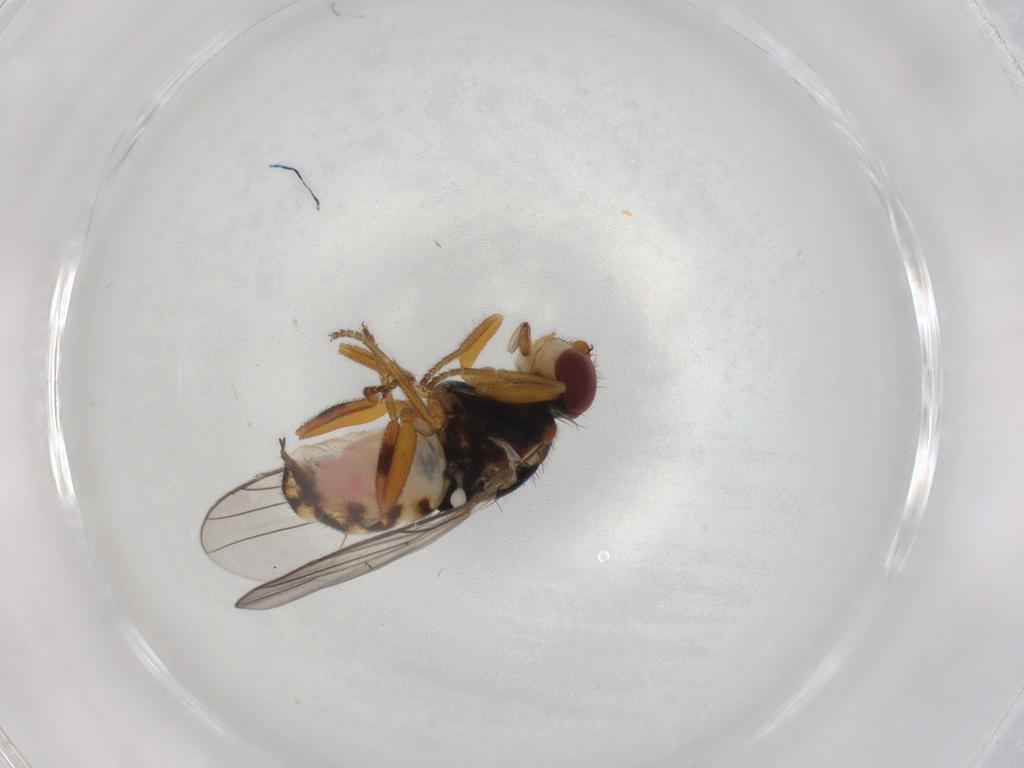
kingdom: Animalia
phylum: Arthropoda
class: Insecta
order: Diptera
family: Chloropidae
